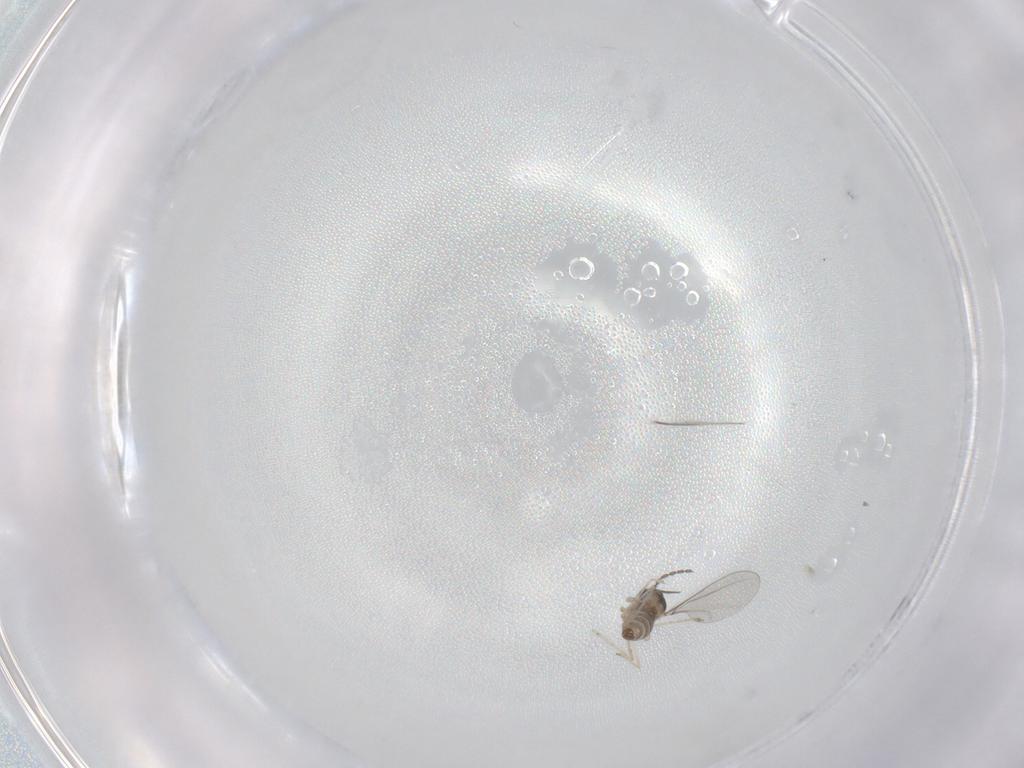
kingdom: Animalia
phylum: Arthropoda
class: Insecta
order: Diptera
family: Cecidomyiidae
